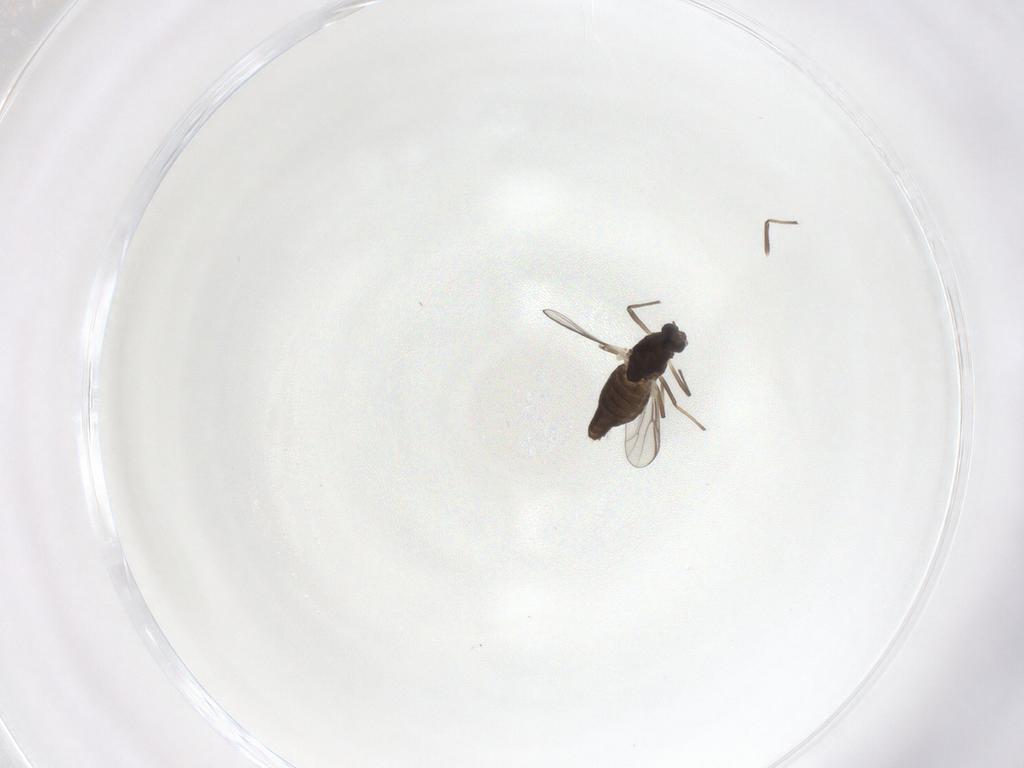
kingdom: Animalia
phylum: Arthropoda
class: Insecta
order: Diptera
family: Chironomidae
